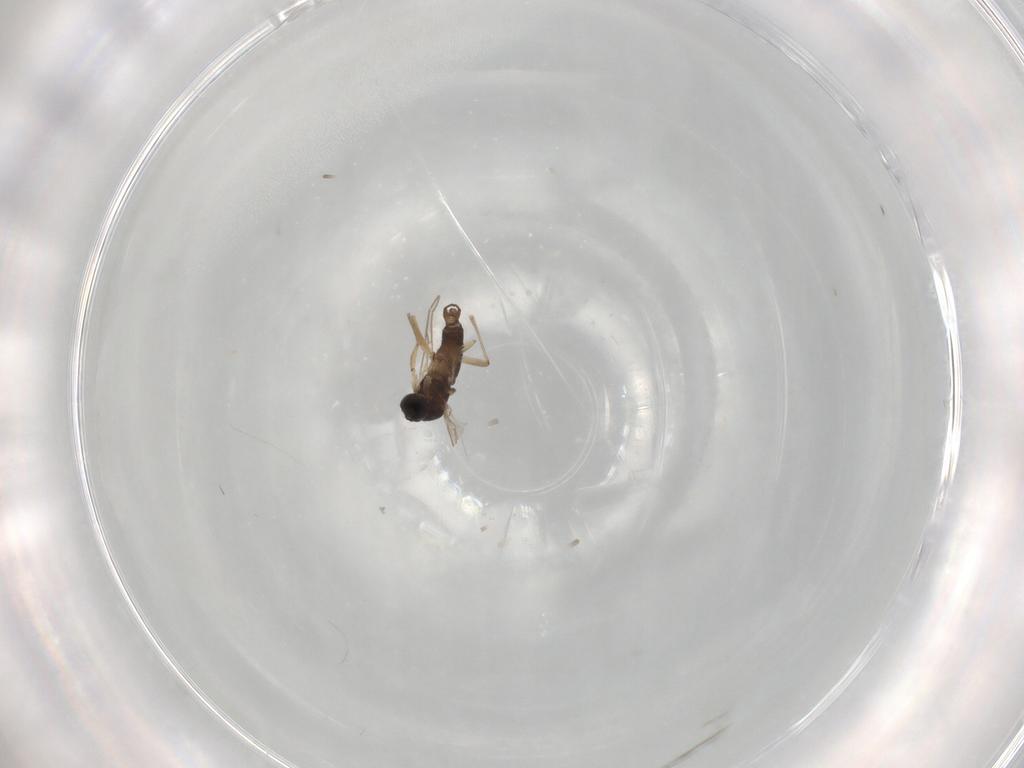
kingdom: Animalia
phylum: Arthropoda
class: Insecta
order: Diptera
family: Sciaridae
